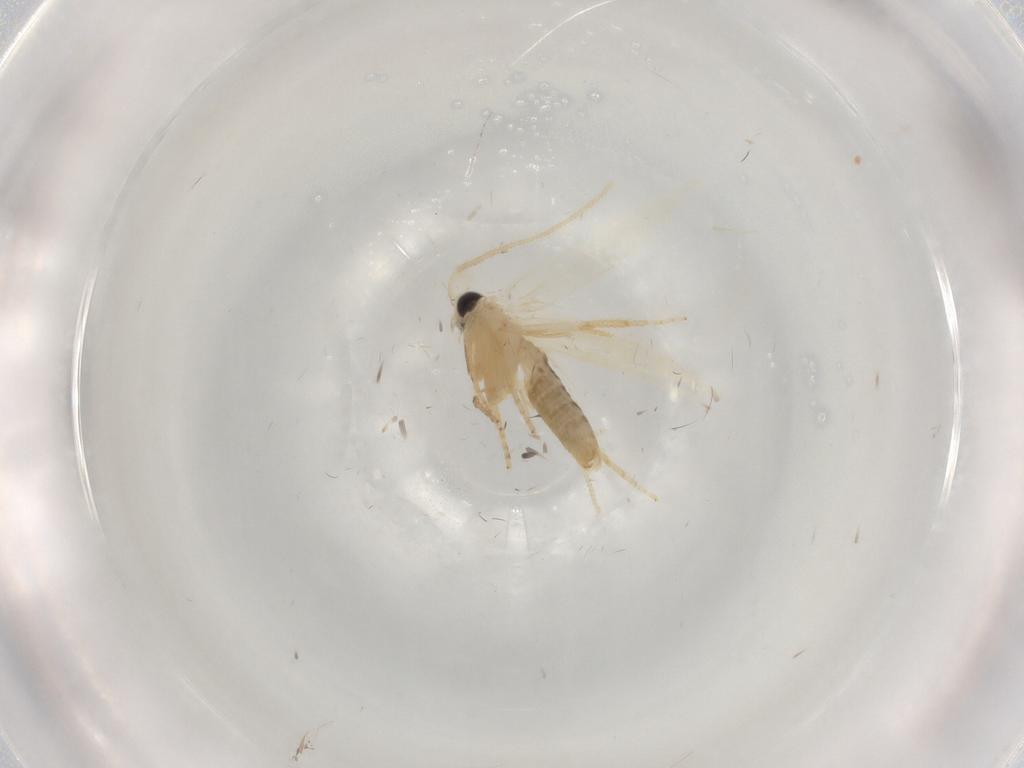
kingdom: Animalia
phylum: Arthropoda
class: Insecta
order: Lepidoptera
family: Opostegidae
